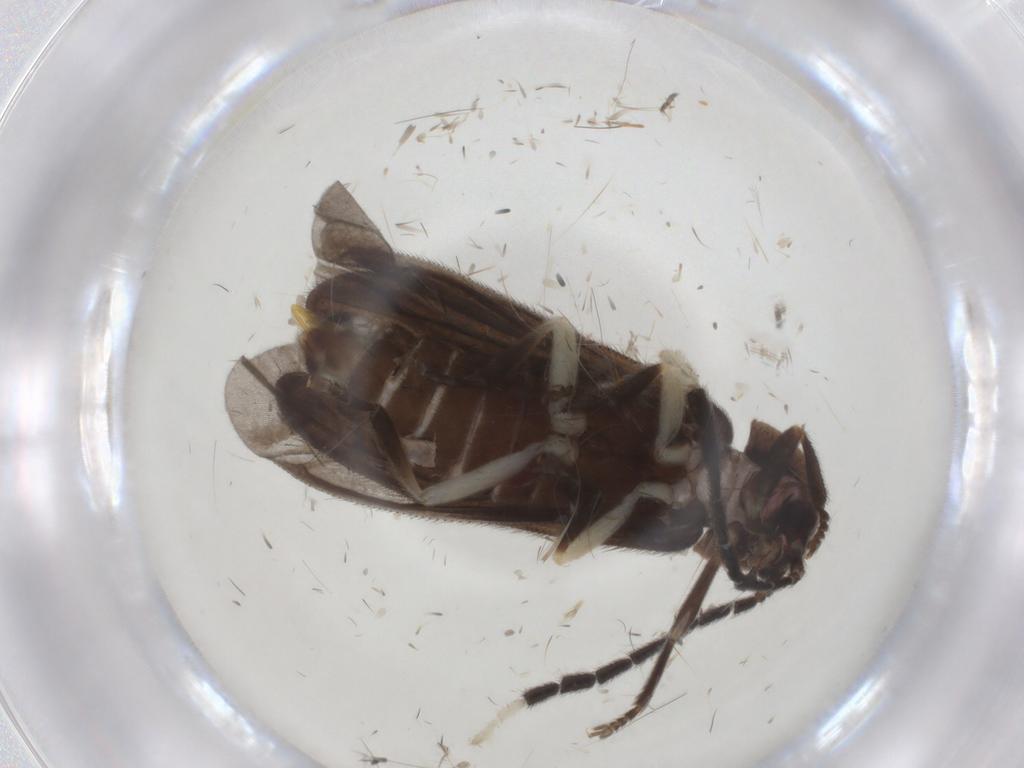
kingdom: Animalia
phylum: Arthropoda
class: Insecta
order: Coleoptera
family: Lampyridae
